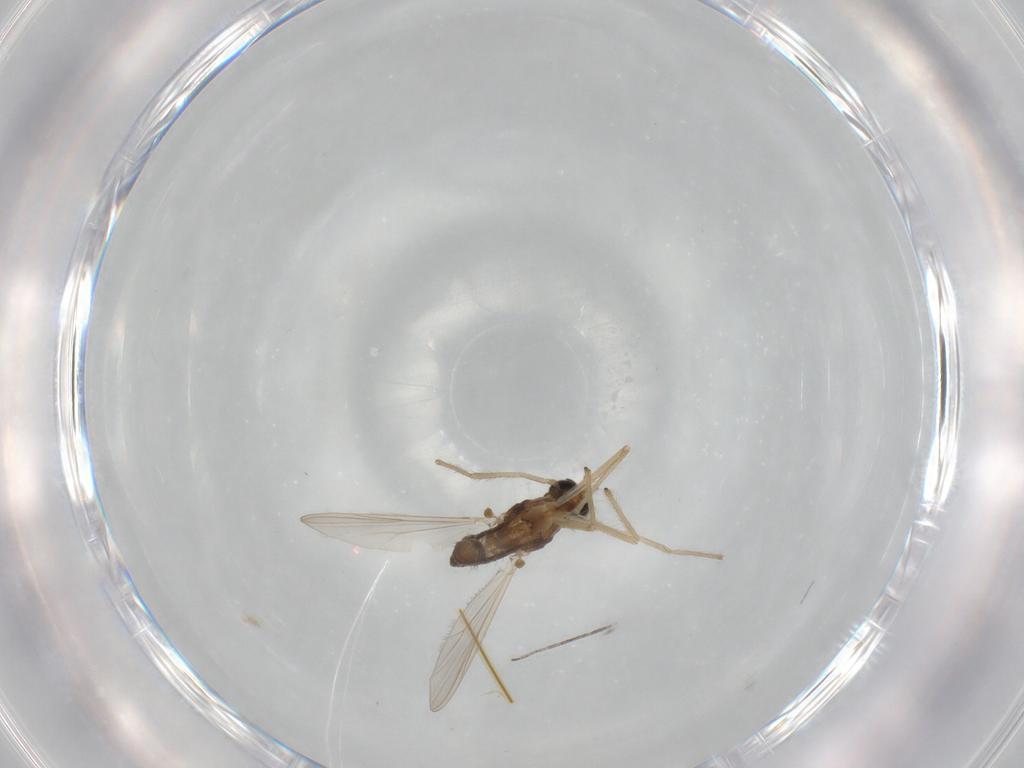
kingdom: Animalia
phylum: Arthropoda
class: Insecta
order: Diptera
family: Chironomidae
